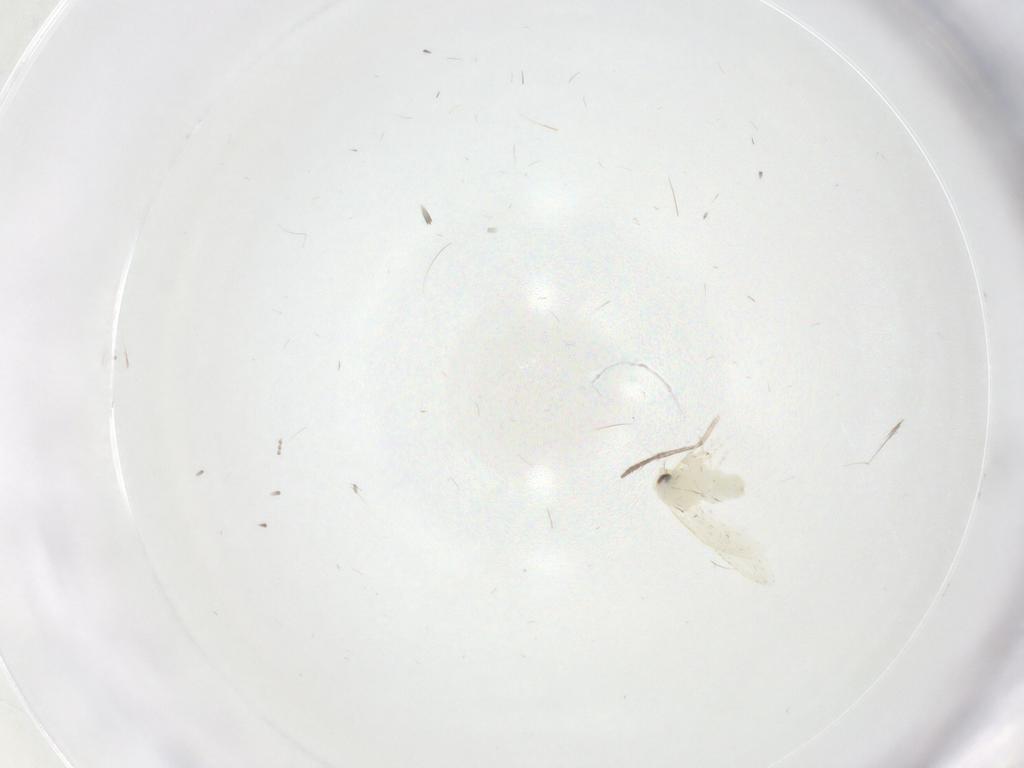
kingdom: Animalia
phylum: Arthropoda
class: Insecta
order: Hemiptera
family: Aleyrodidae
